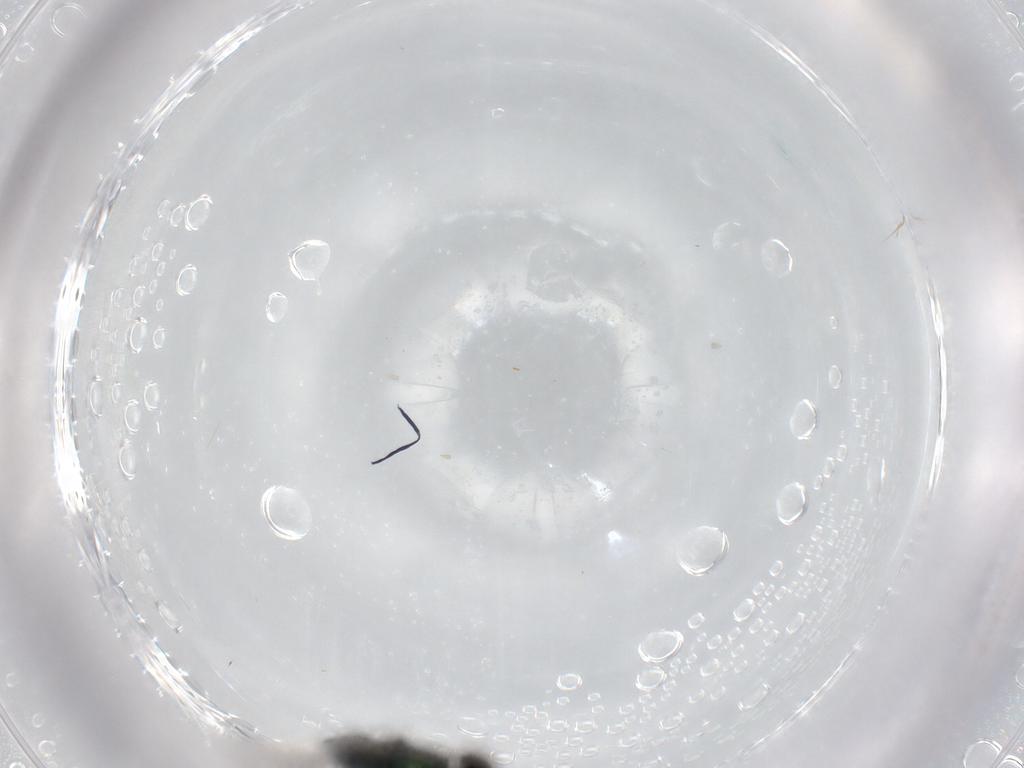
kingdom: Animalia
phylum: Arthropoda
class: Insecta
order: Diptera
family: Dolichopodidae
